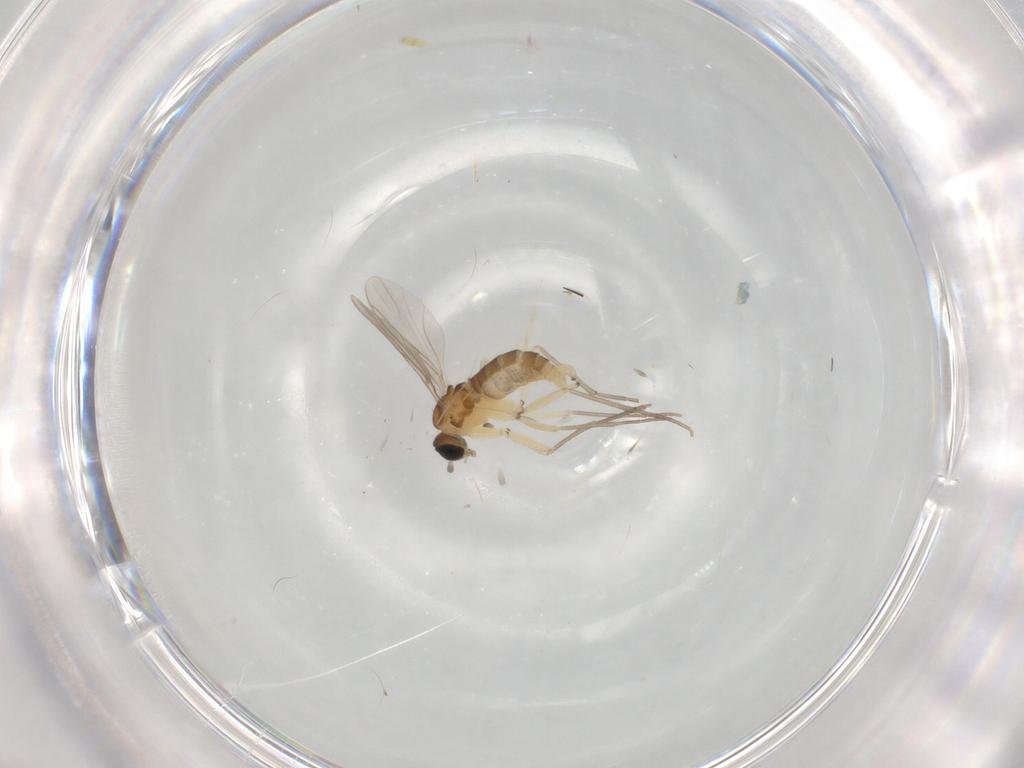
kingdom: Animalia
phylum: Arthropoda
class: Insecta
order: Diptera
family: Sciaridae
